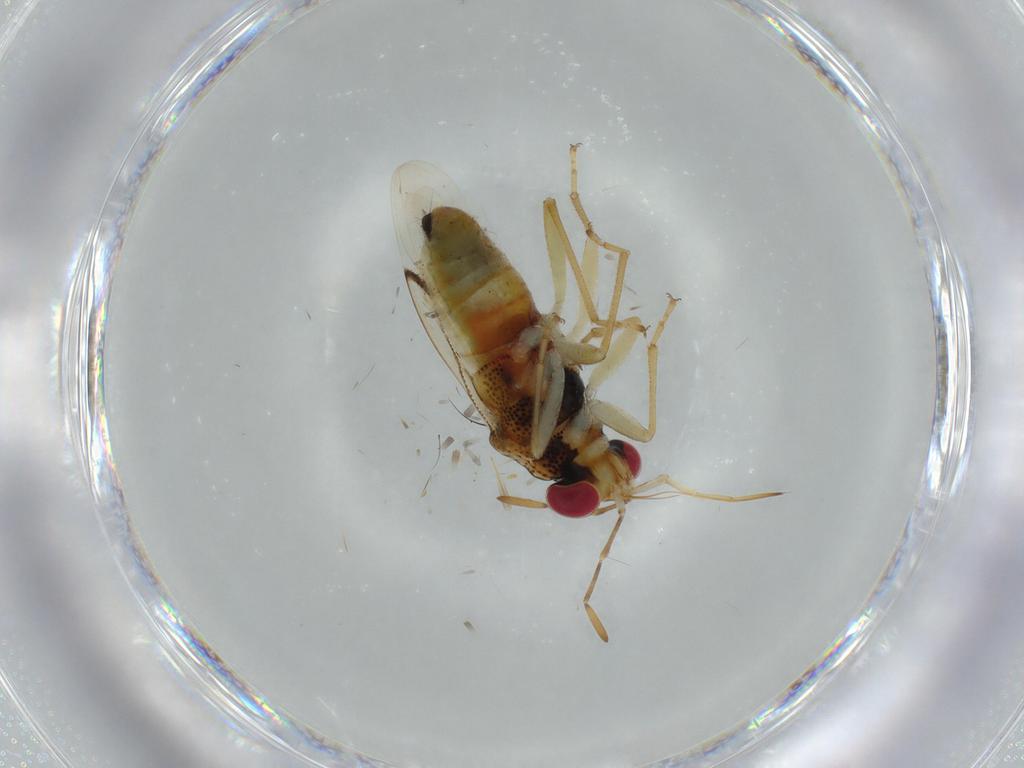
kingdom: Animalia
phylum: Arthropoda
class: Insecta
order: Hemiptera
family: Geocoridae
